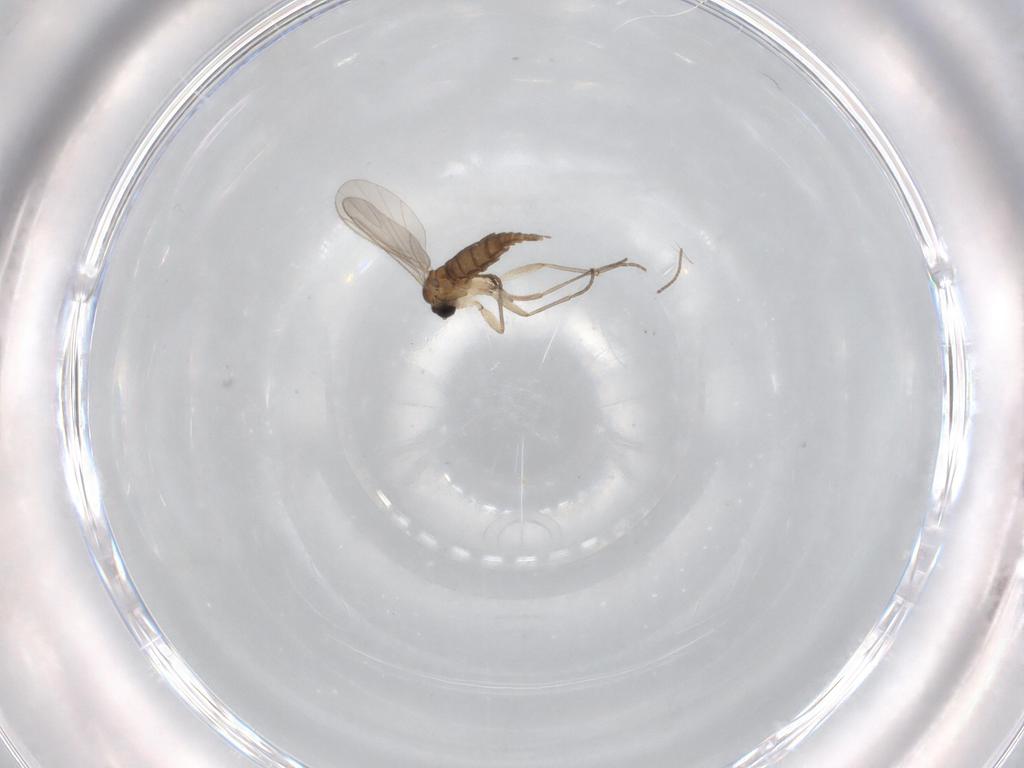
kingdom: Animalia
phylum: Arthropoda
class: Insecta
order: Diptera
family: Sciaridae
